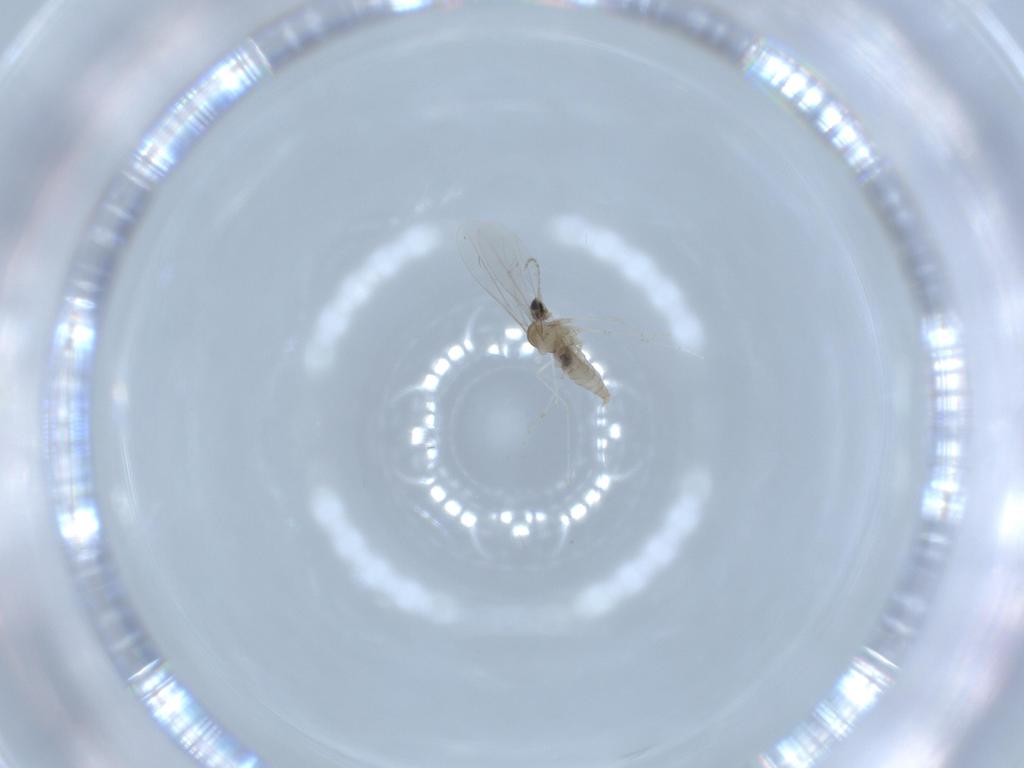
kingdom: Animalia
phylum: Arthropoda
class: Insecta
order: Diptera
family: Cecidomyiidae
